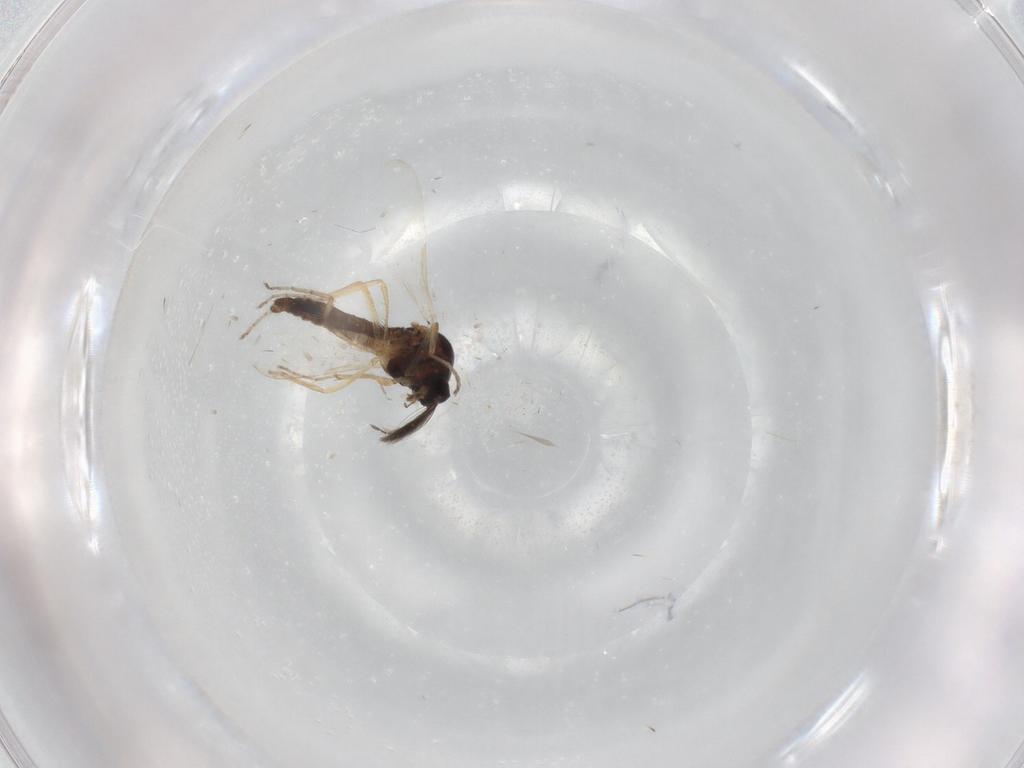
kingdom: Animalia
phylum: Arthropoda
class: Insecta
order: Diptera
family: Ceratopogonidae
